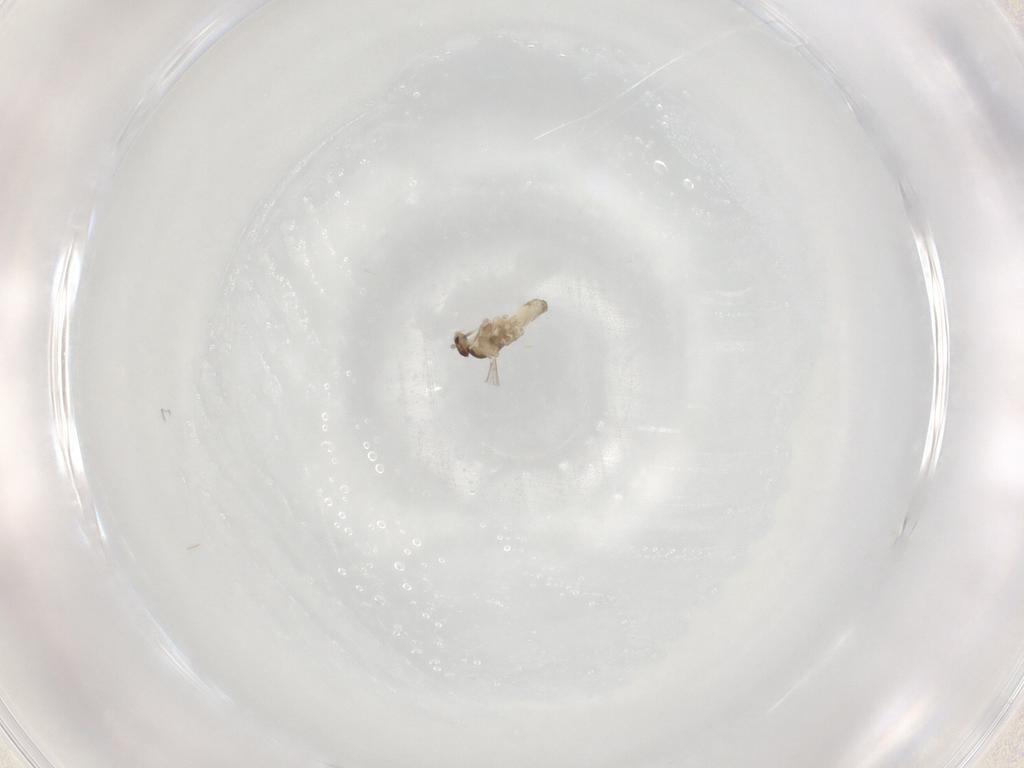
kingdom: Animalia
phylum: Arthropoda
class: Insecta
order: Diptera
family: Cecidomyiidae
